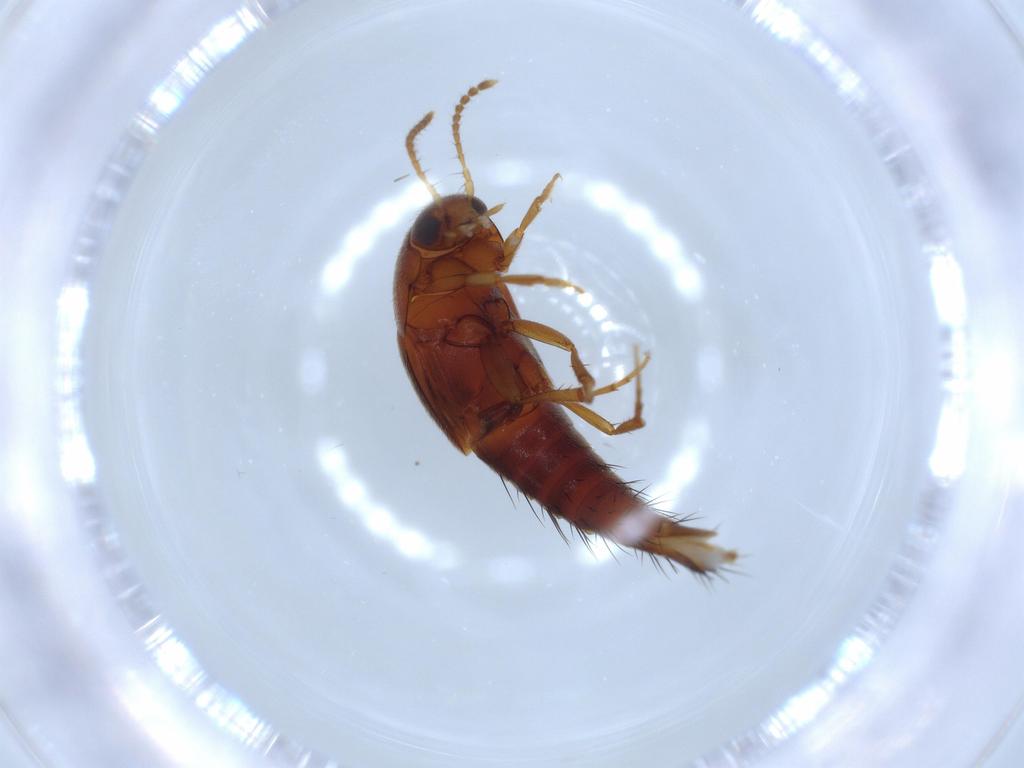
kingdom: Animalia
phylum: Arthropoda
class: Insecta
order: Coleoptera
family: Staphylinidae
